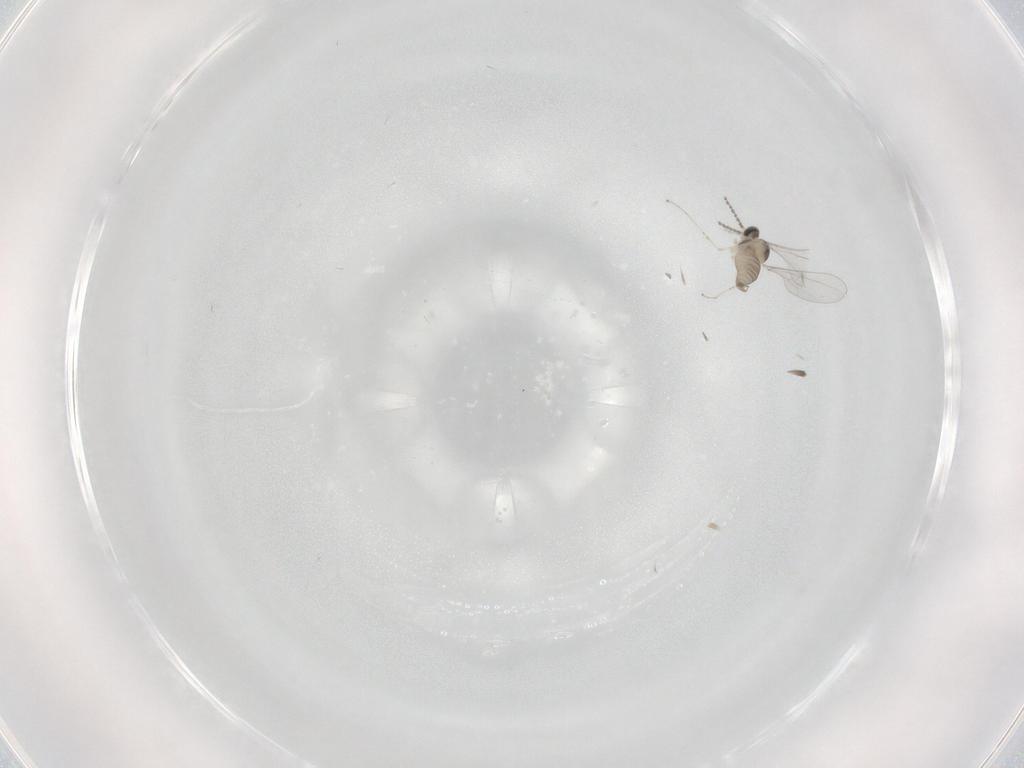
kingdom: Animalia
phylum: Arthropoda
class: Insecta
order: Diptera
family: Cecidomyiidae
